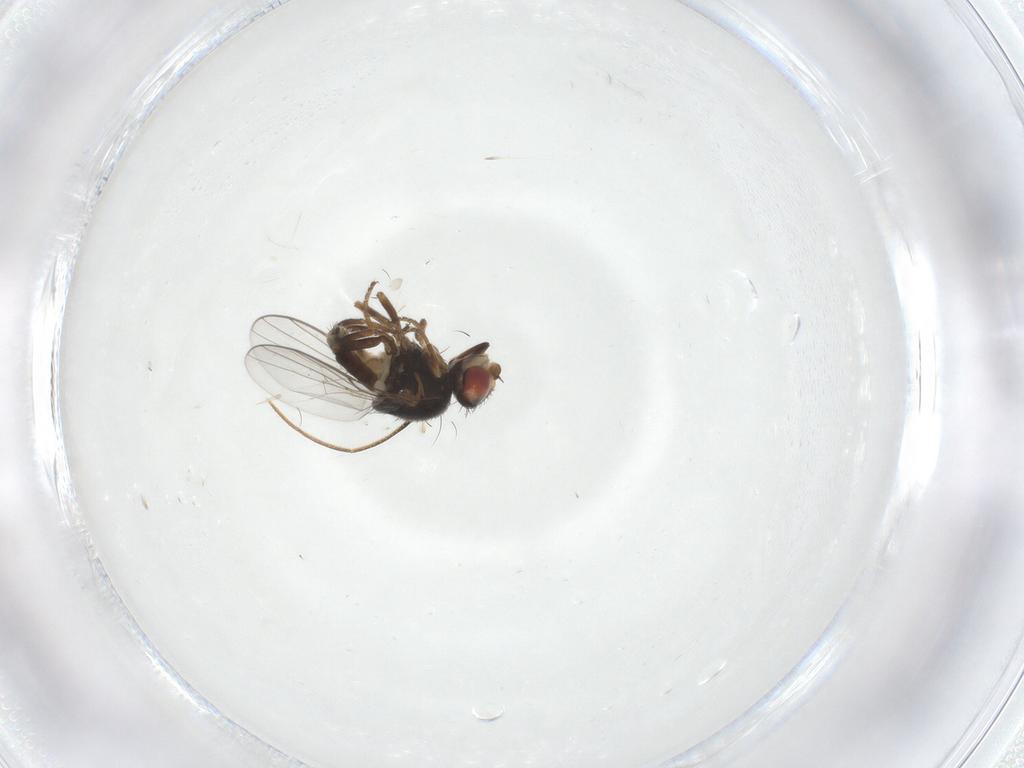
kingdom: Animalia
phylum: Arthropoda
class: Insecta
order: Diptera
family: Chloropidae
